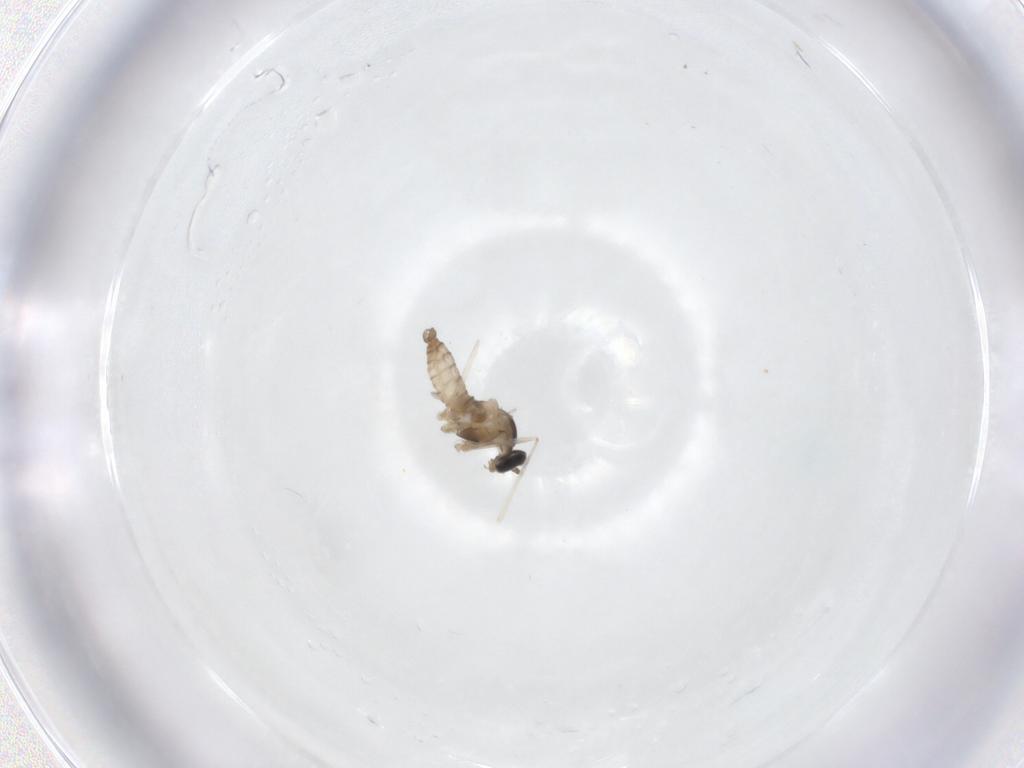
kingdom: Animalia
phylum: Arthropoda
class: Insecta
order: Diptera
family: Cecidomyiidae
